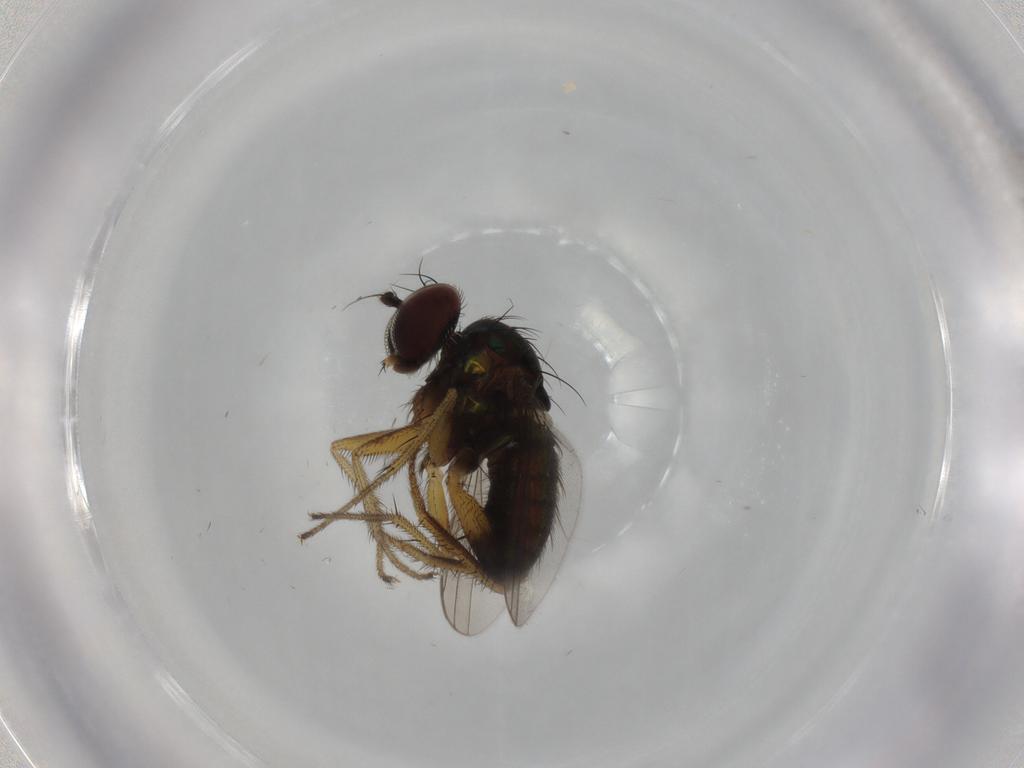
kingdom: Animalia
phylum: Arthropoda
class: Insecta
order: Diptera
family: Dolichopodidae
